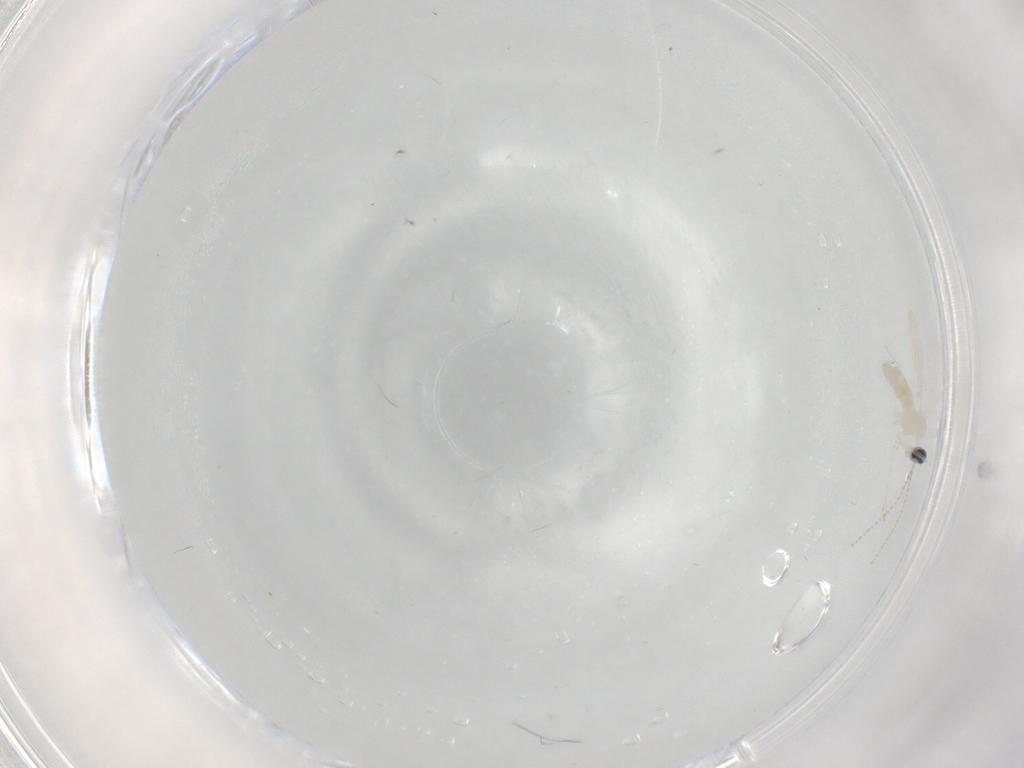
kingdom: Animalia
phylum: Arthropoda
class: Insecta
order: Diptera
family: Cecidomyiidae
